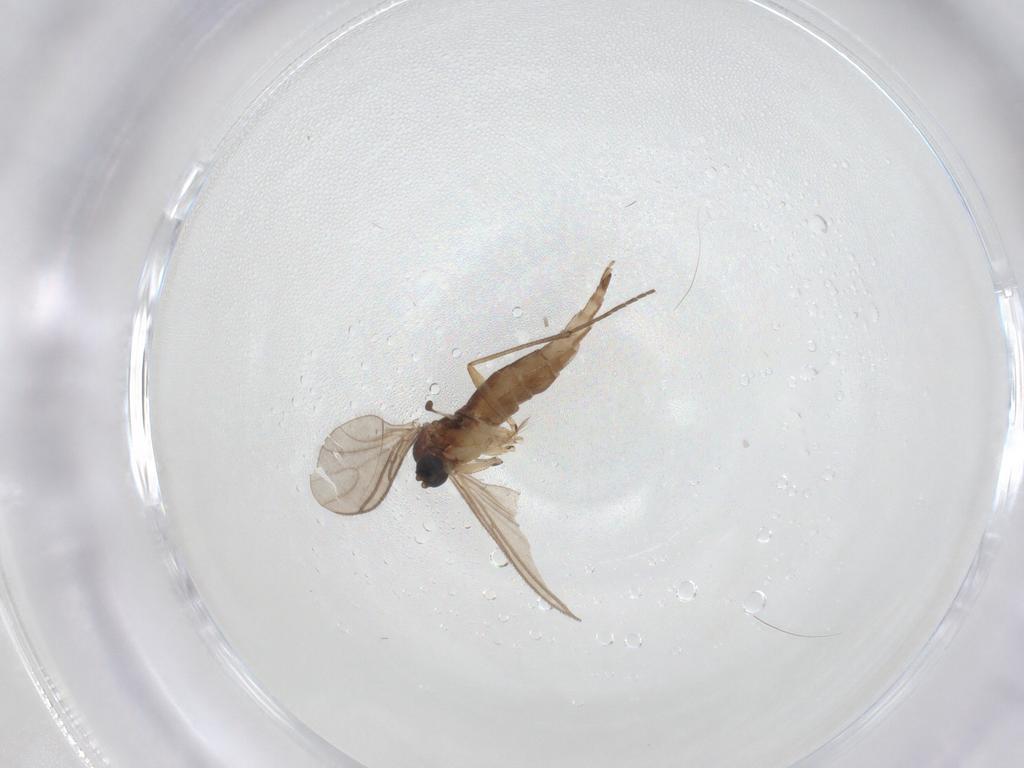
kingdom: Animalia
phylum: Arthropoda
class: Insecta
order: Diptera
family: Sciaridae
